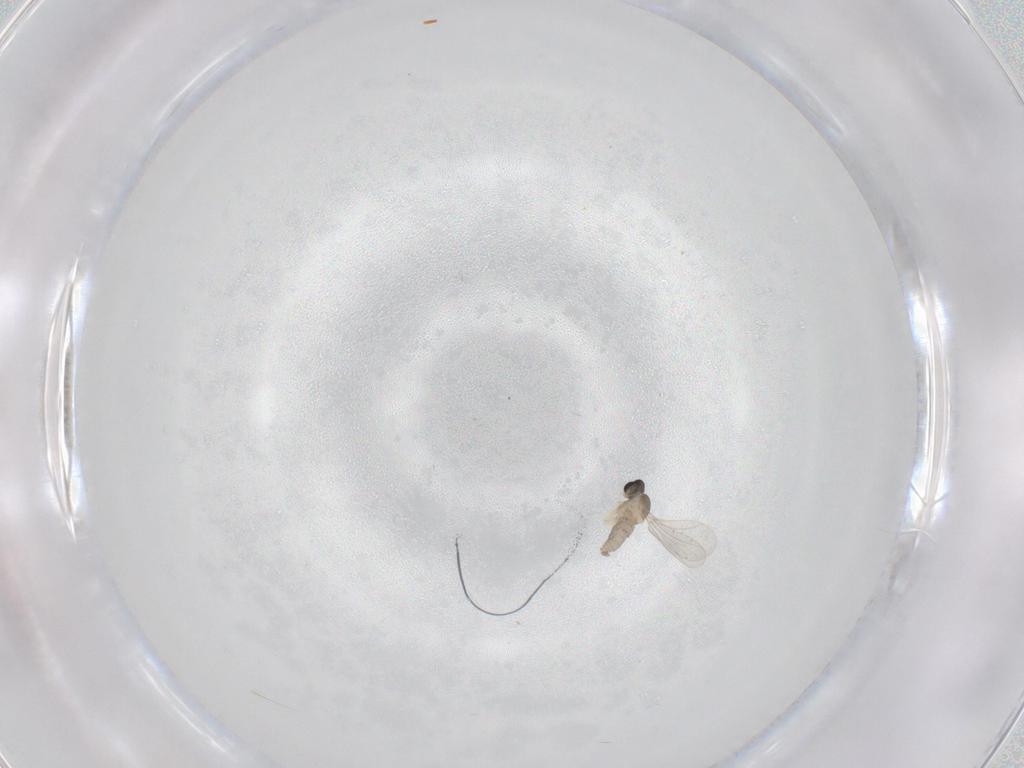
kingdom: Animalia
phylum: Arthropoda
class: Insecta
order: Diptera
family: Cecidomyiidae
